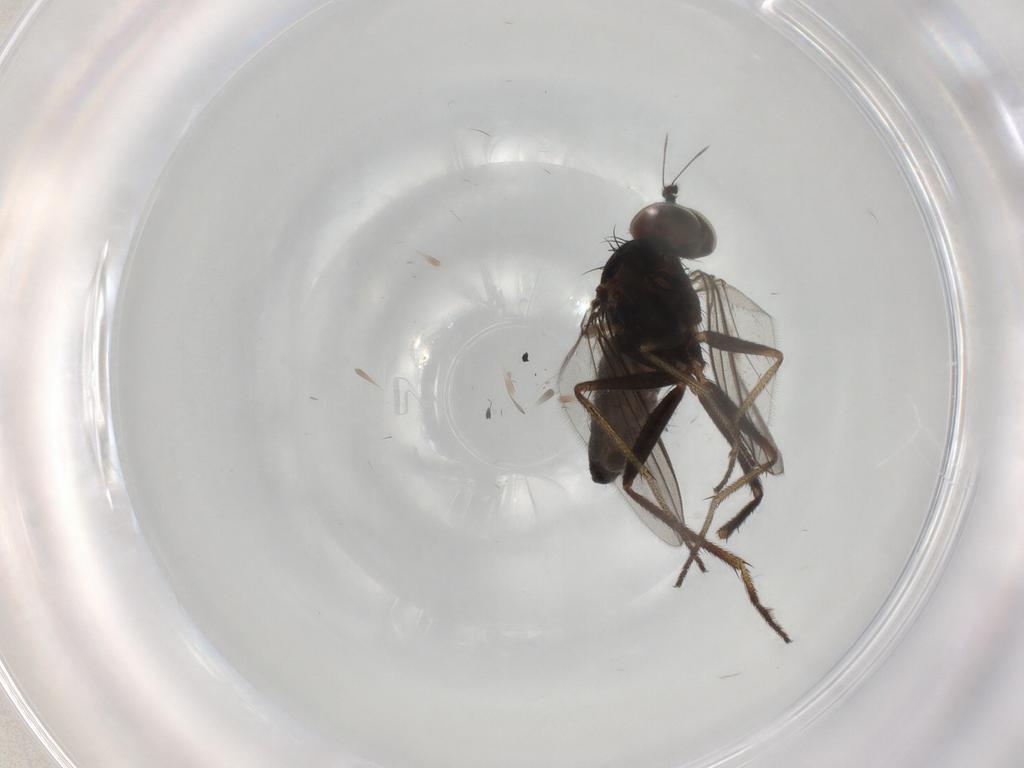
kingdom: Animalia
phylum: Arthropoda
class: Insecta
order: Diptera
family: Dolichopodidae
